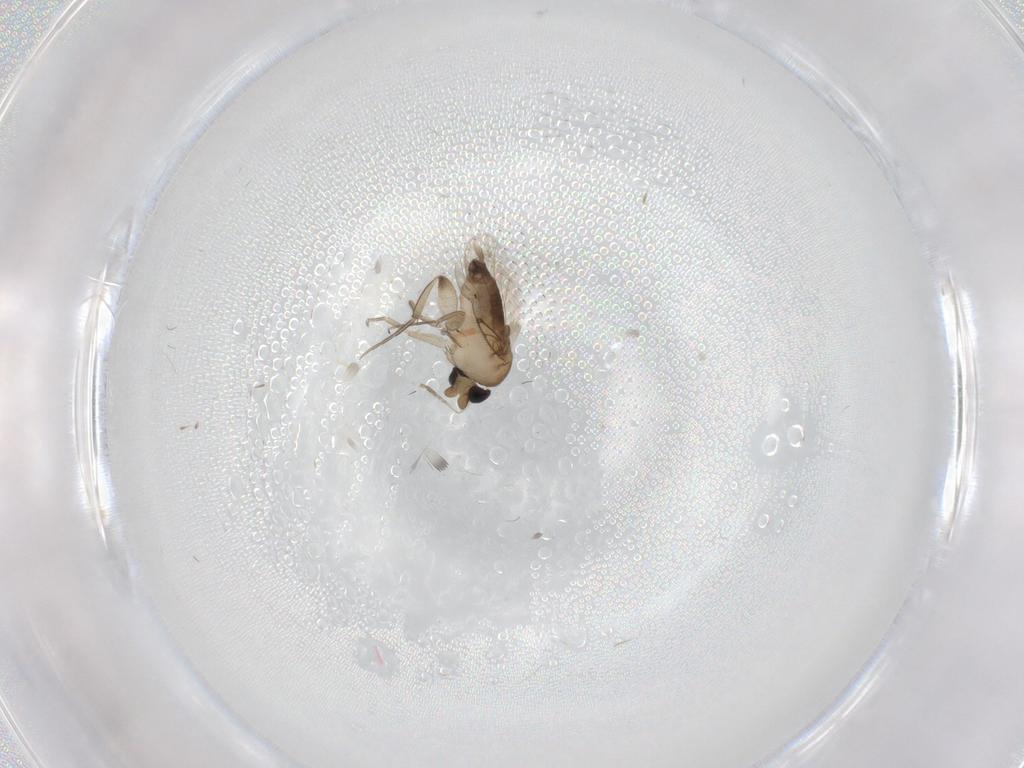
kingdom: Animalia
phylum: Arthropoda
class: Insecta
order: Diptera
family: Phoridae
